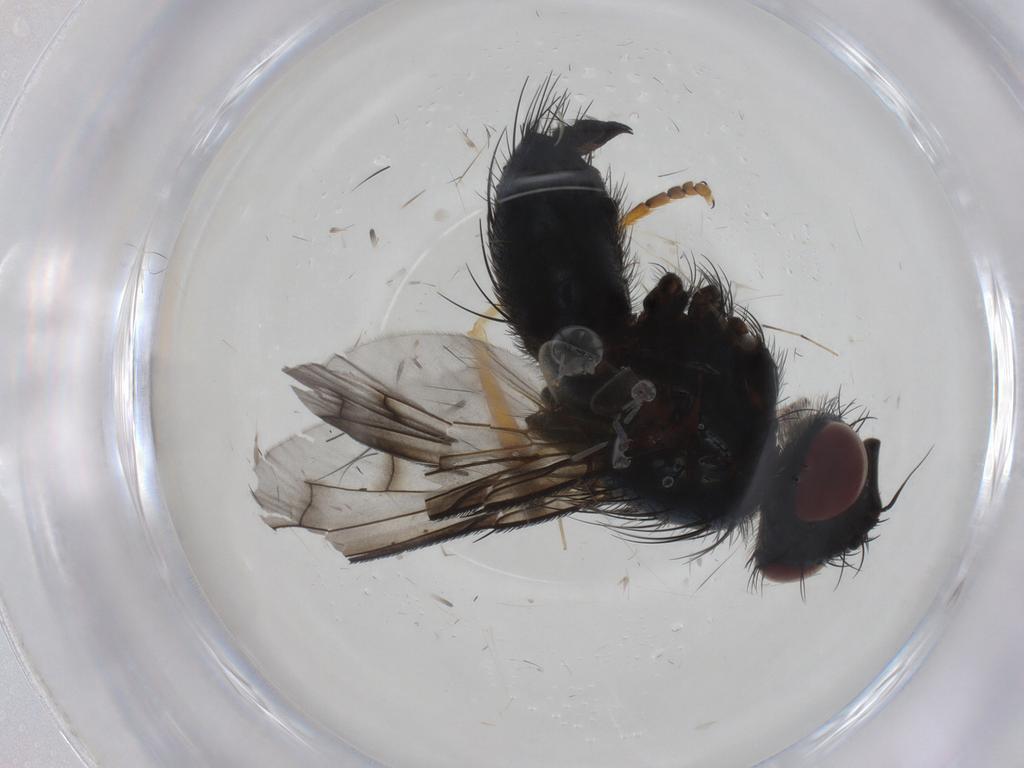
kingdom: Animalia
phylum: Arthropoda
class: Insecta
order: Diptera
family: Tachinidae
